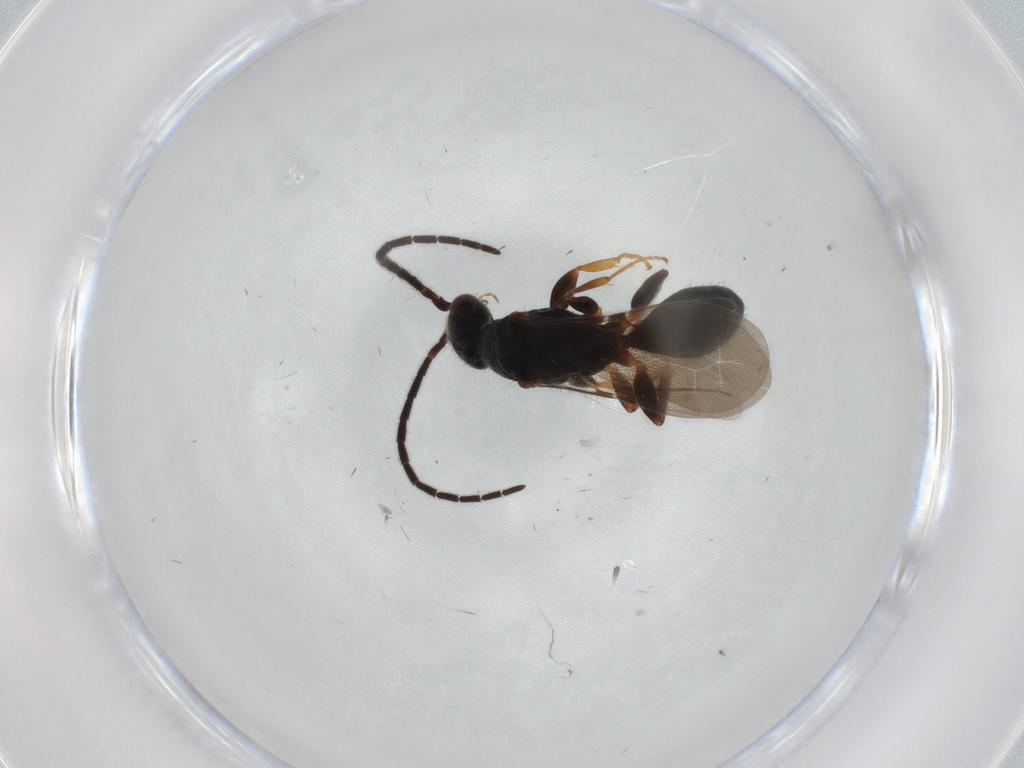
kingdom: Animalia
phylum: Arthropoda
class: Insecta
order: Hymenoptera
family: Bethylidae
